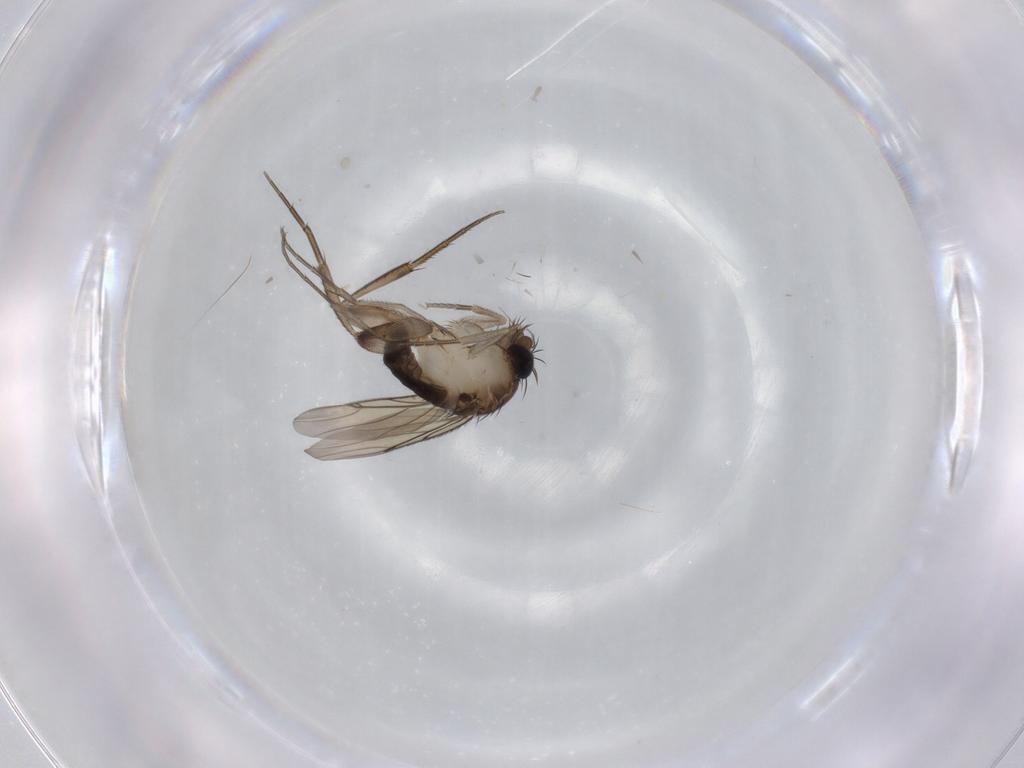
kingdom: Animalia
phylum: Arthropoda
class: Insecta
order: Diptera
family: Phoridae
